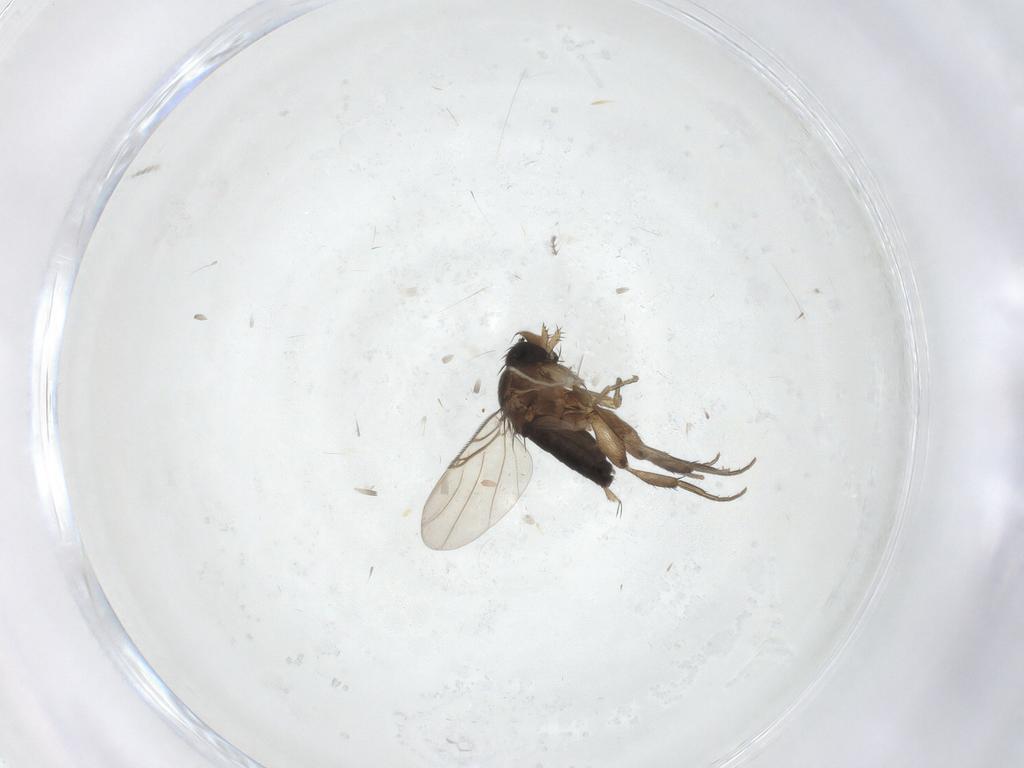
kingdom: Animalia
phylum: Arthropoda
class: Insecta
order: Diptera
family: Phoridae
